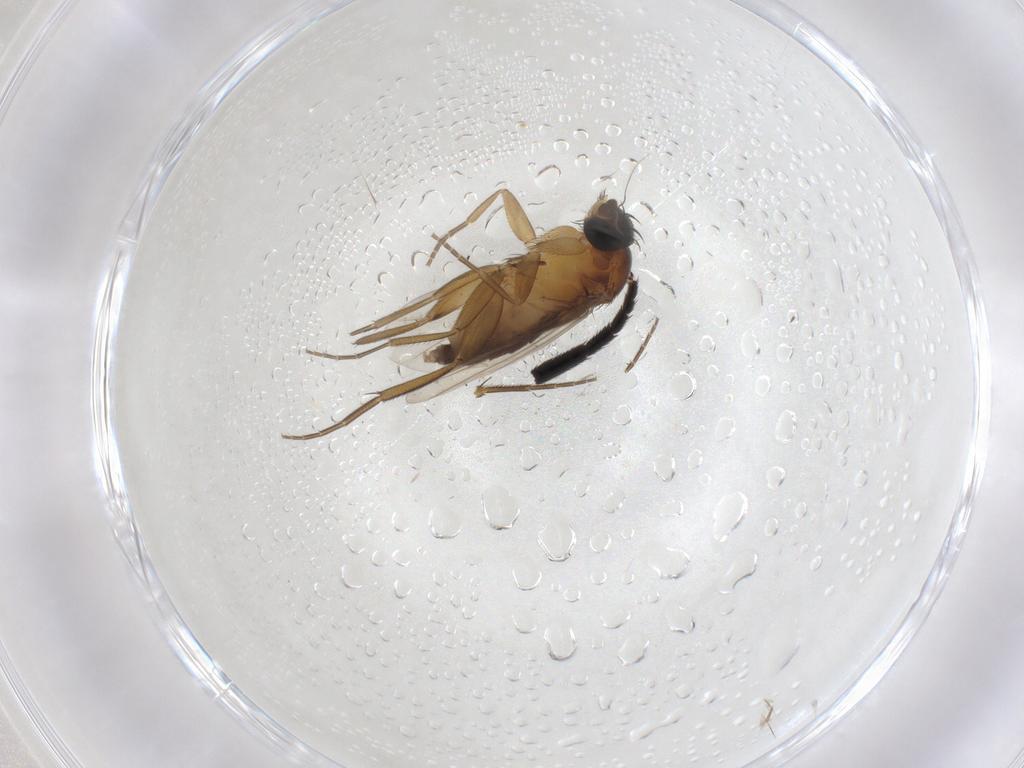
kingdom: Animalia
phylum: Arthropoda
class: Insecta
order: Diptera
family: Phoridae
